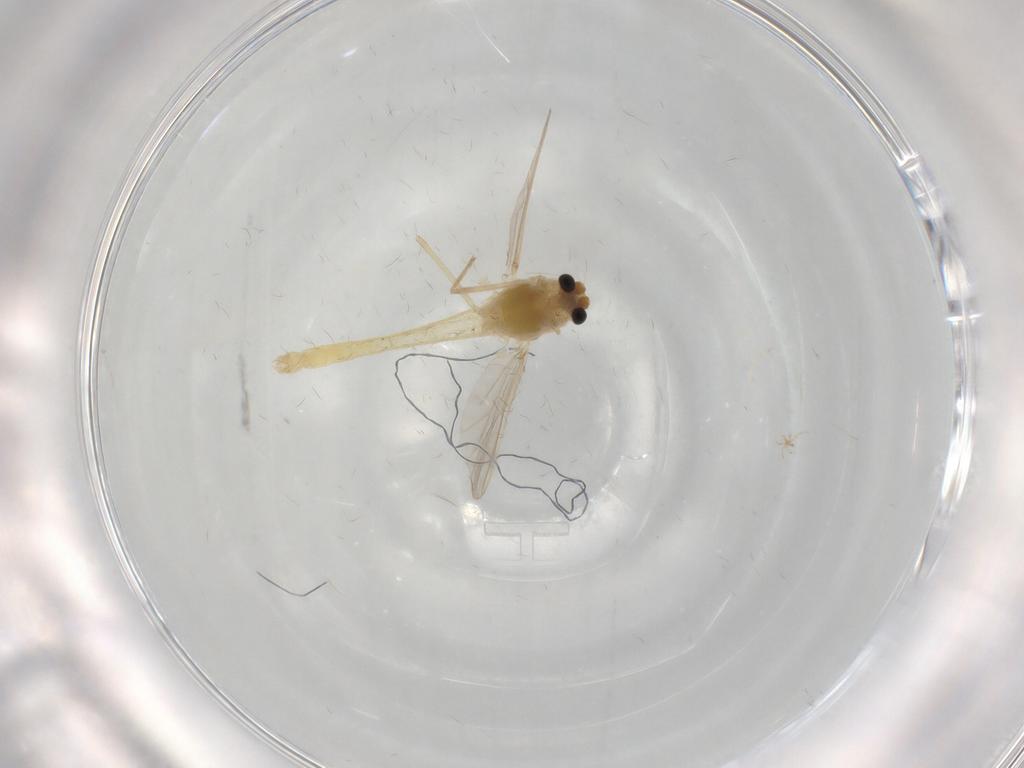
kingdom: Animalia
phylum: Arthropoda
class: Insecta
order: Diptera
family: Chironomidae
